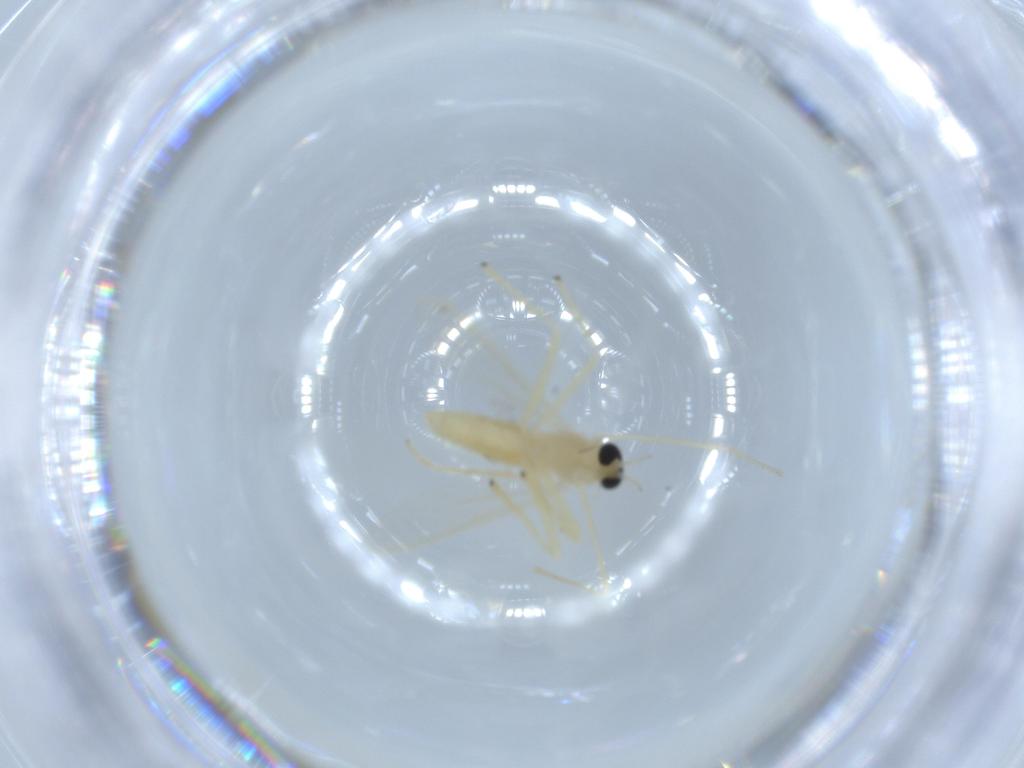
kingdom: Animalia
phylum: Arthropoda
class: Insecta
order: Diptera
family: Chironomidae
